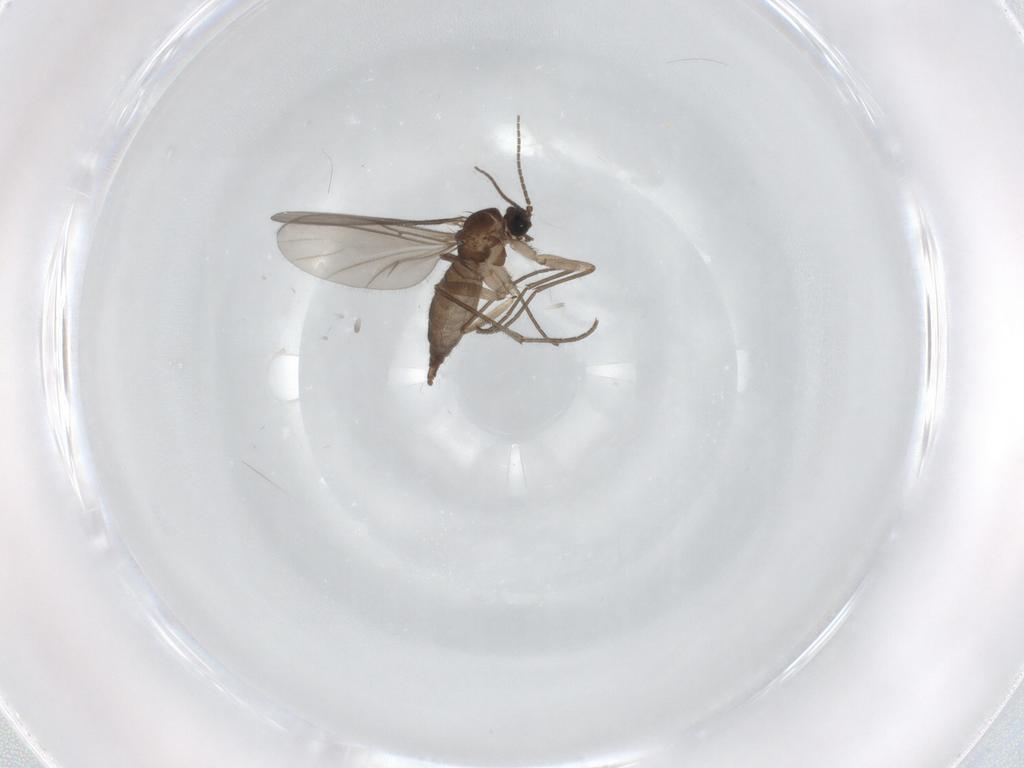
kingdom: Animalia
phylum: Arthropoda
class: Insecta
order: Diptera
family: Sciaridae
